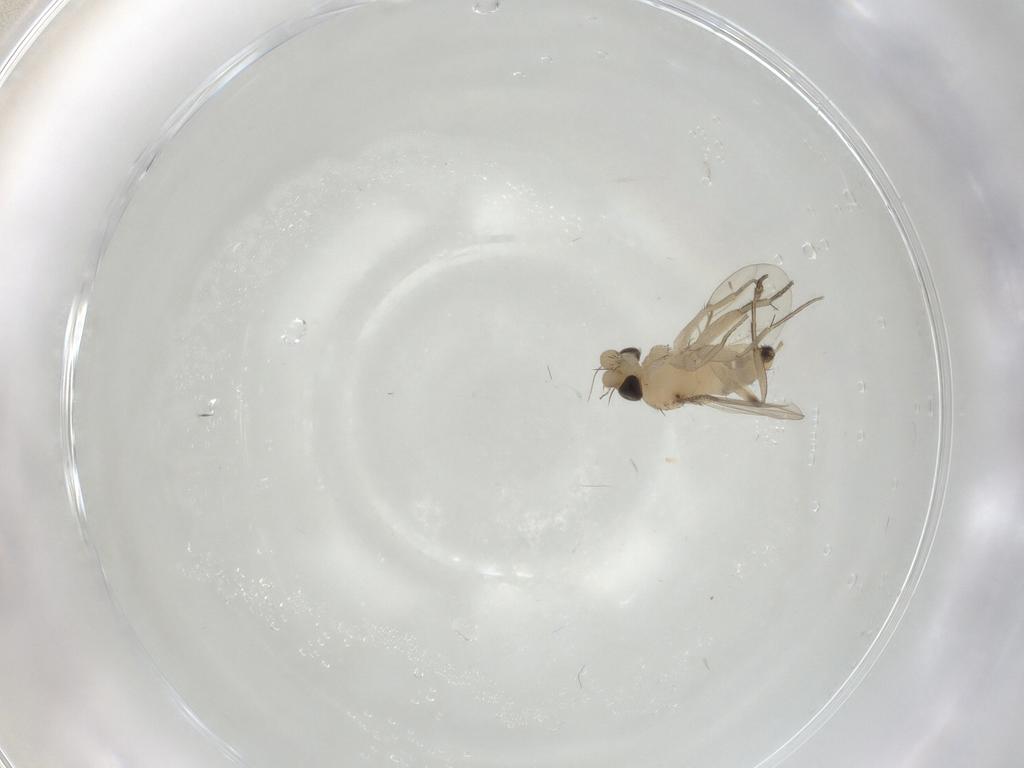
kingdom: Animalia
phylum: Arthropoda
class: Insecta
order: Diptera
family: Phoridae
